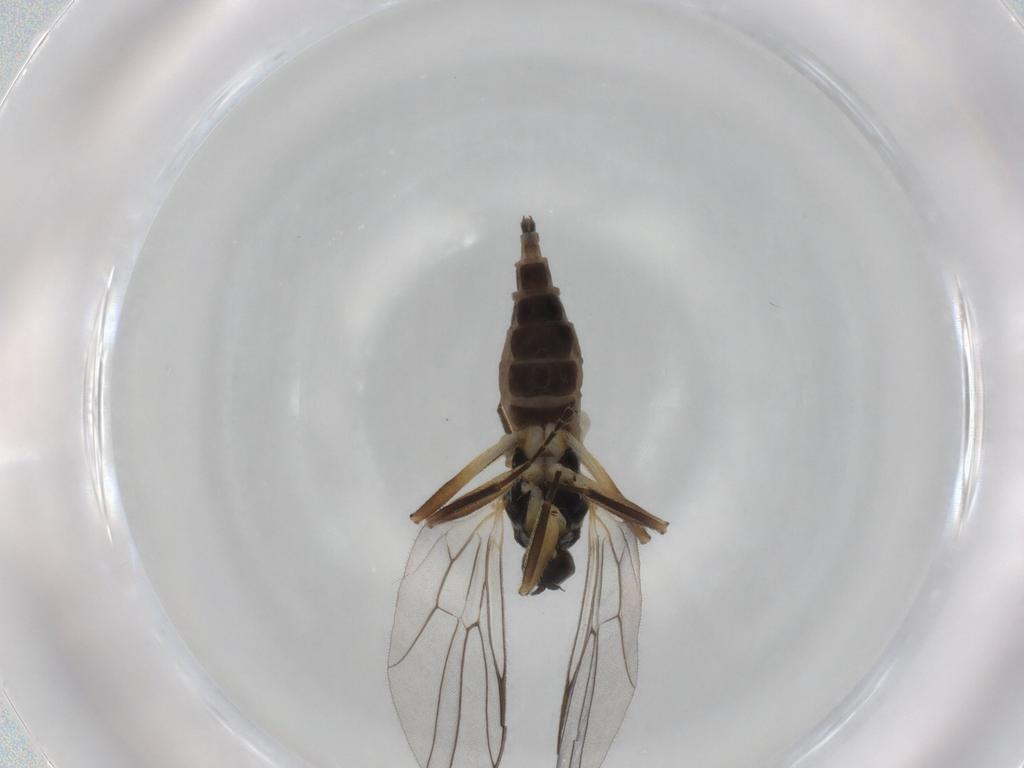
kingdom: Animalia
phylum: Arthropoda
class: Insecta
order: Diptera
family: Hybotidae
